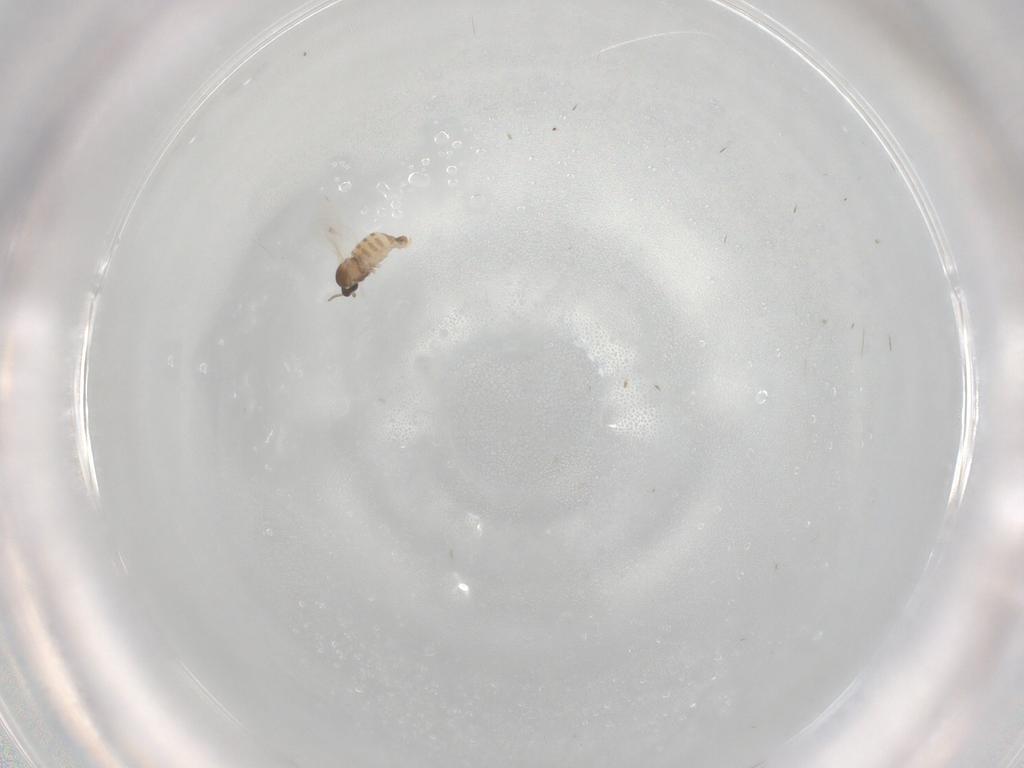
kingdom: Animalia
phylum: Arthropoda
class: Insecta
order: Diptera
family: Cecidomyiidae
